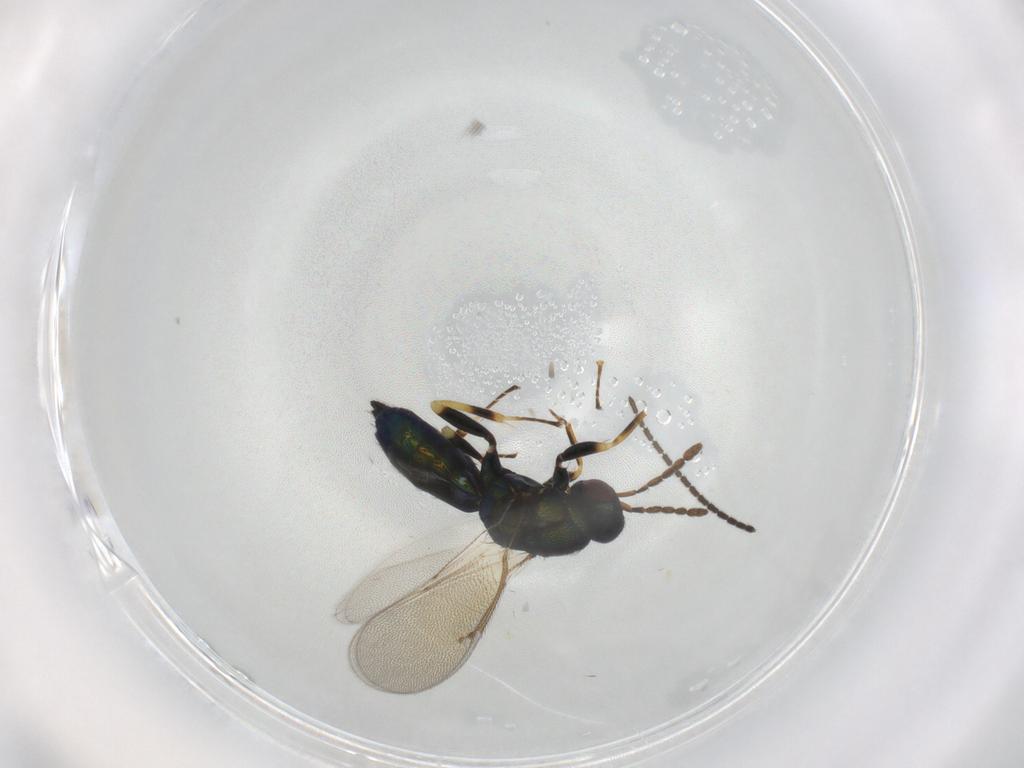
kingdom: Animalia
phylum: Arthropoda
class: Insecta
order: Hymenoptera
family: Eulophidae
